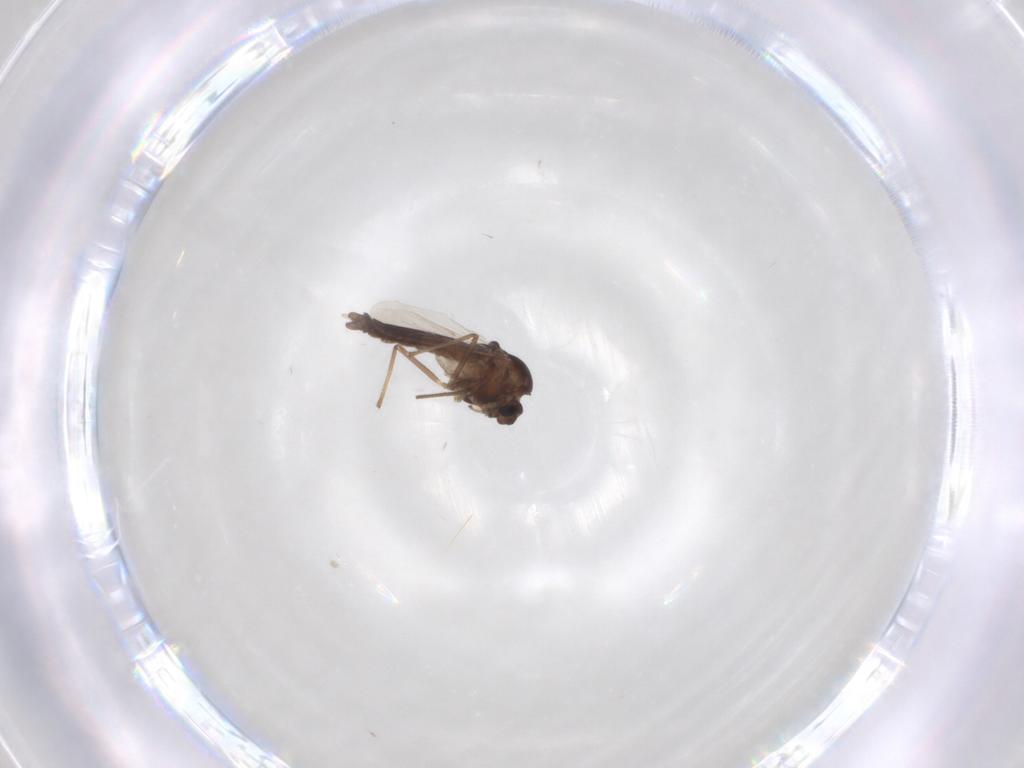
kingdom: Animalia
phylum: Arthropoda
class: Insecta
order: Diptera
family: Chironomidae
